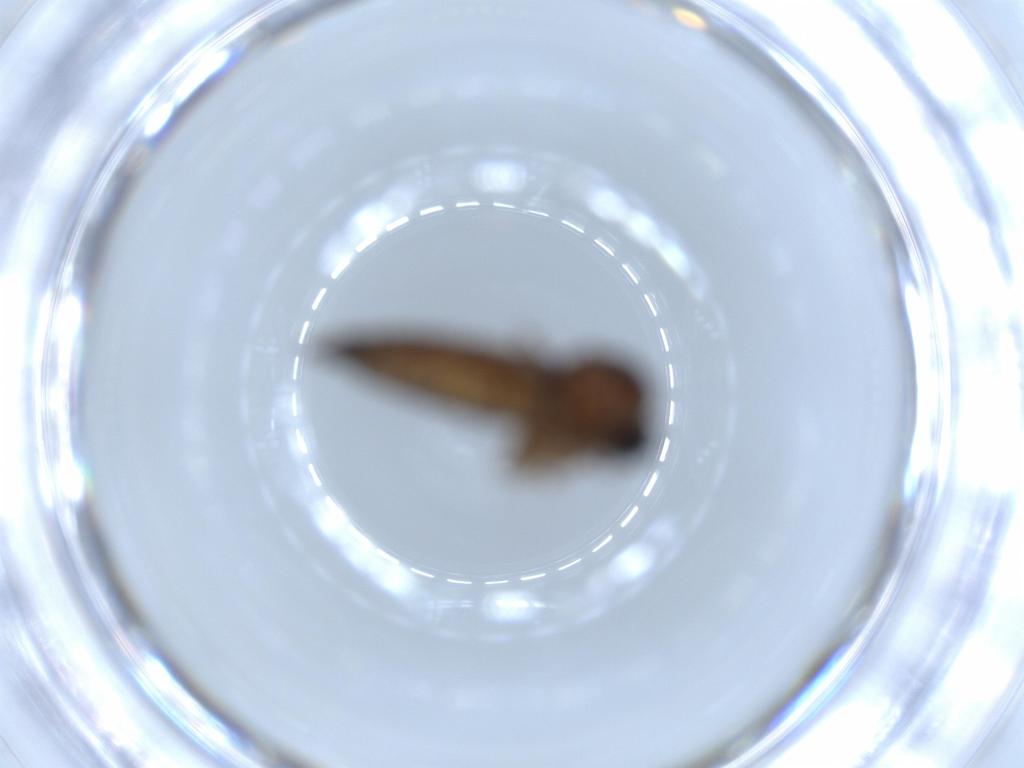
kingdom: Animalia
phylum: Arthropoda
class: Insecta
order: Diptera
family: Sciaridae
